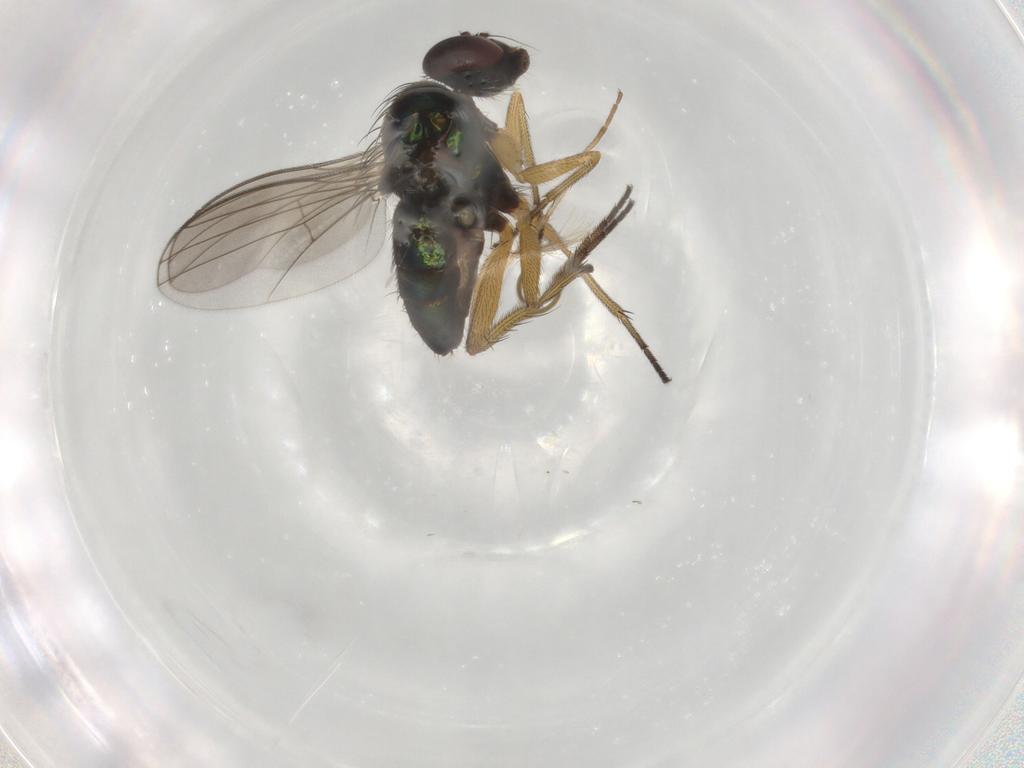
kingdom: Animalia
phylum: Arthropoda
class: Insecta
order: Diptera
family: Dolichopodidae
